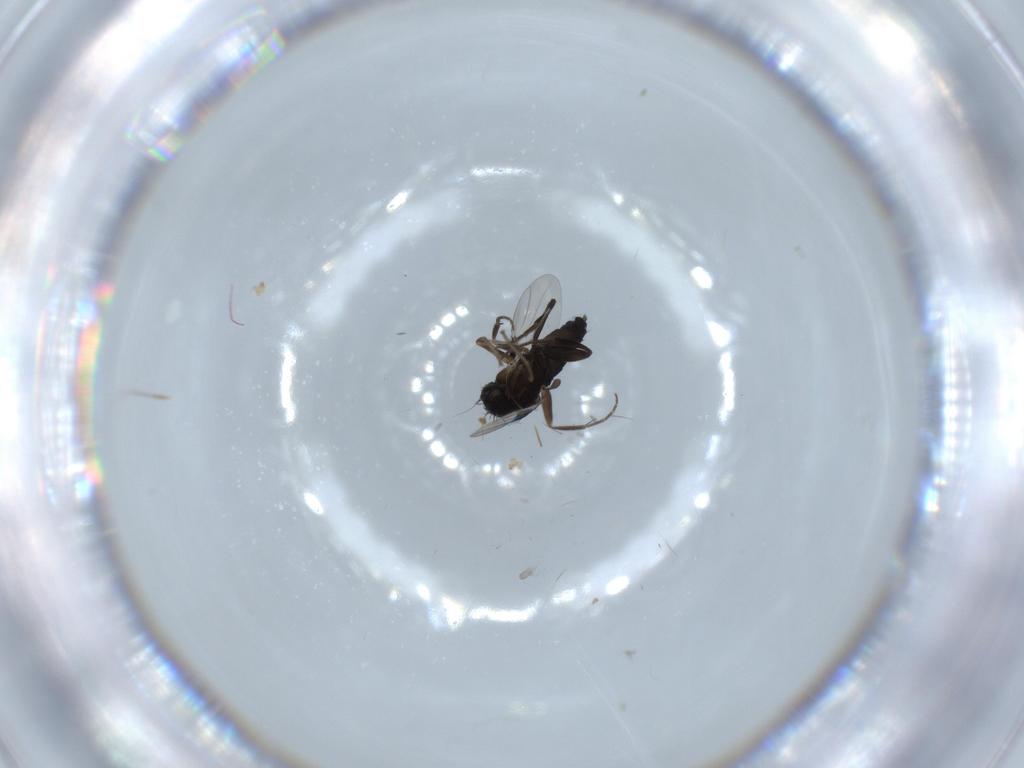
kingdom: Animalia
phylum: Arthropoda
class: Insecta
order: Diptera
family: Phoridae
